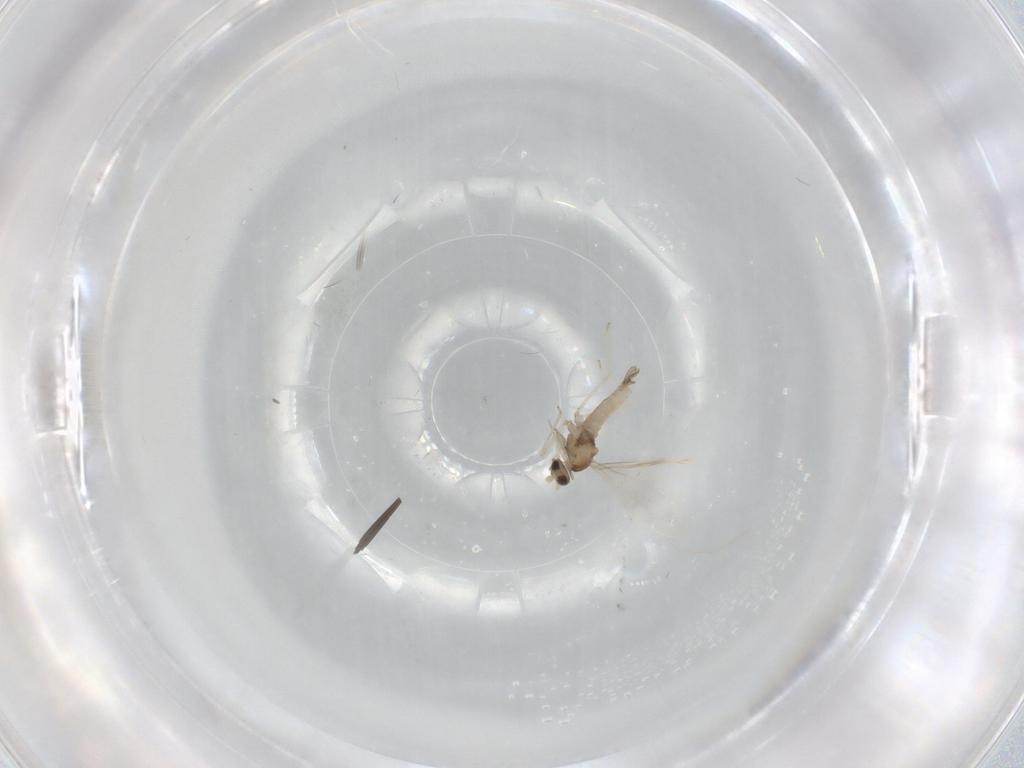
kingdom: Animalia
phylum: Arthropoda
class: Insecta
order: Diptera
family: Cecidomyiidae
